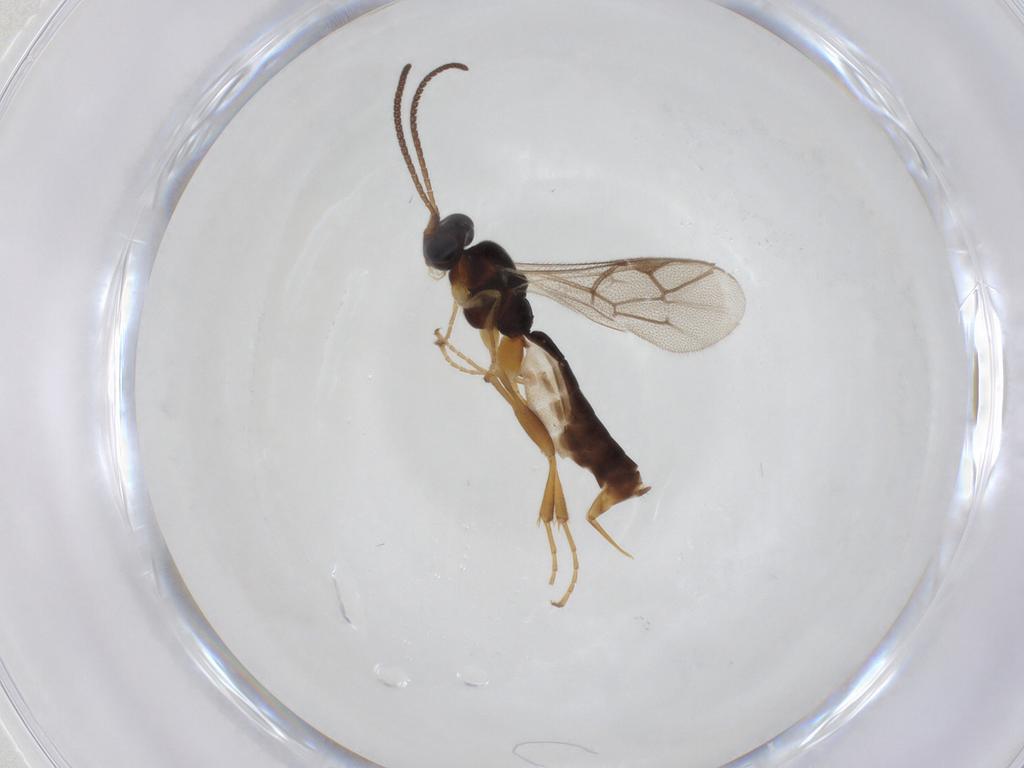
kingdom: Animalia
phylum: Arthropoda
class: Insecta
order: Hymenoptera
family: Ichneumonidae
